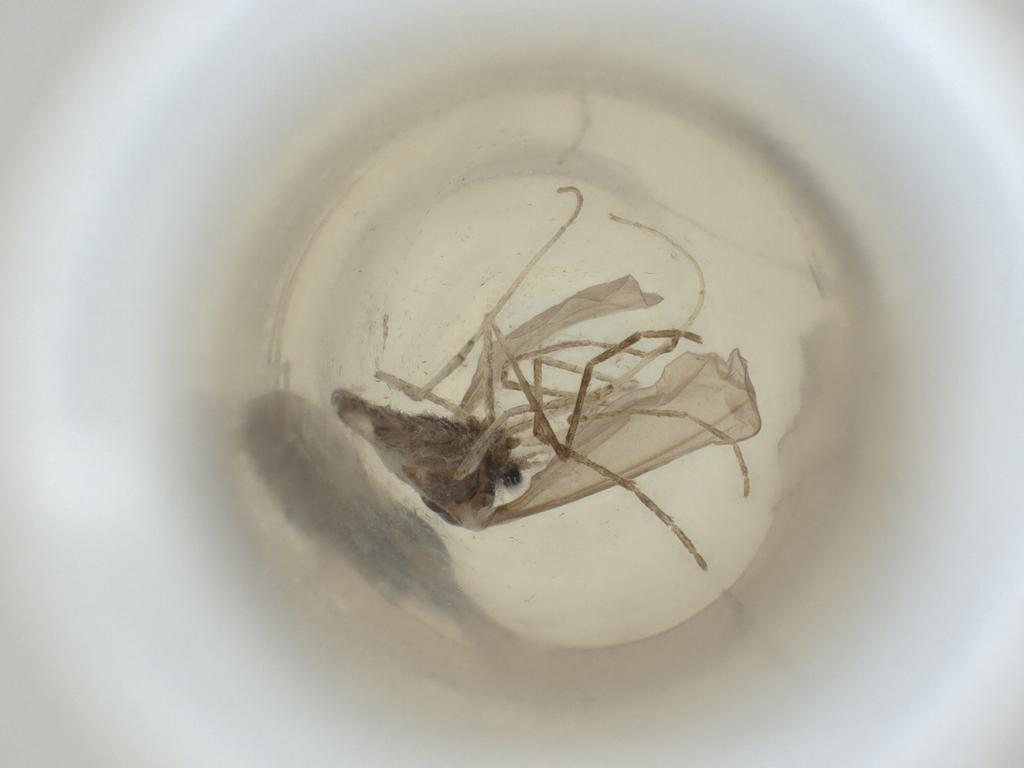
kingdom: Animalia
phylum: Arthropoda
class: Insecta
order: Diptera
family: Cecidomyiidae
